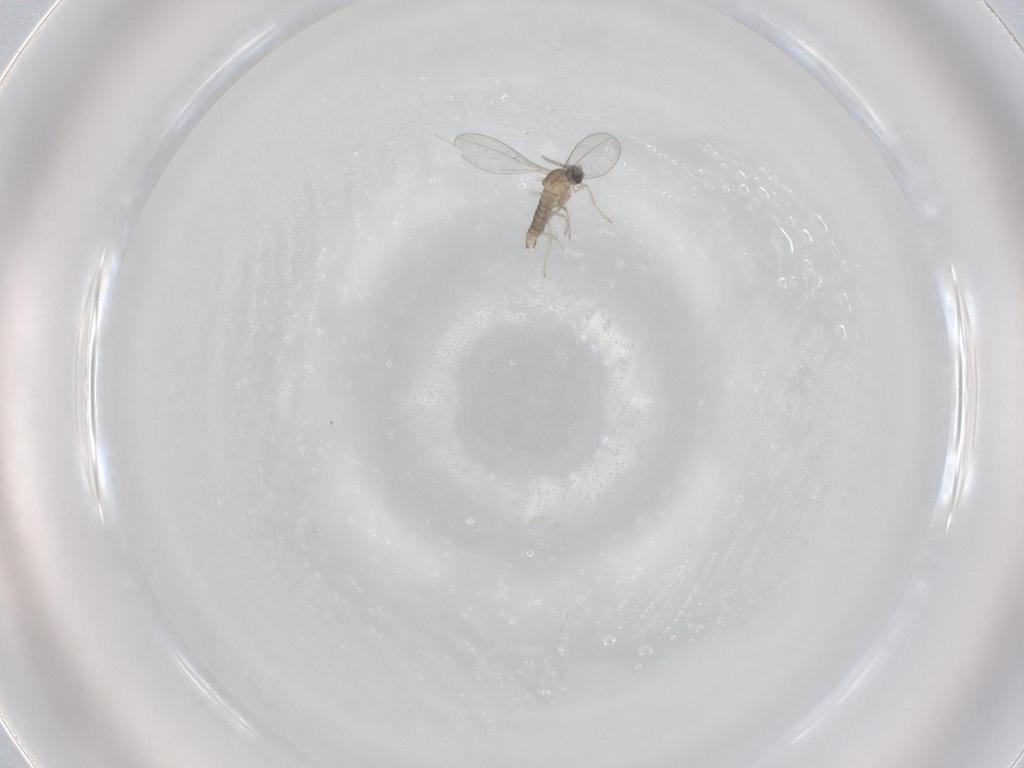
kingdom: Animalia
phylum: Arthropoda
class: Insecta
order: Diptera
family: Cecidomyiidae
